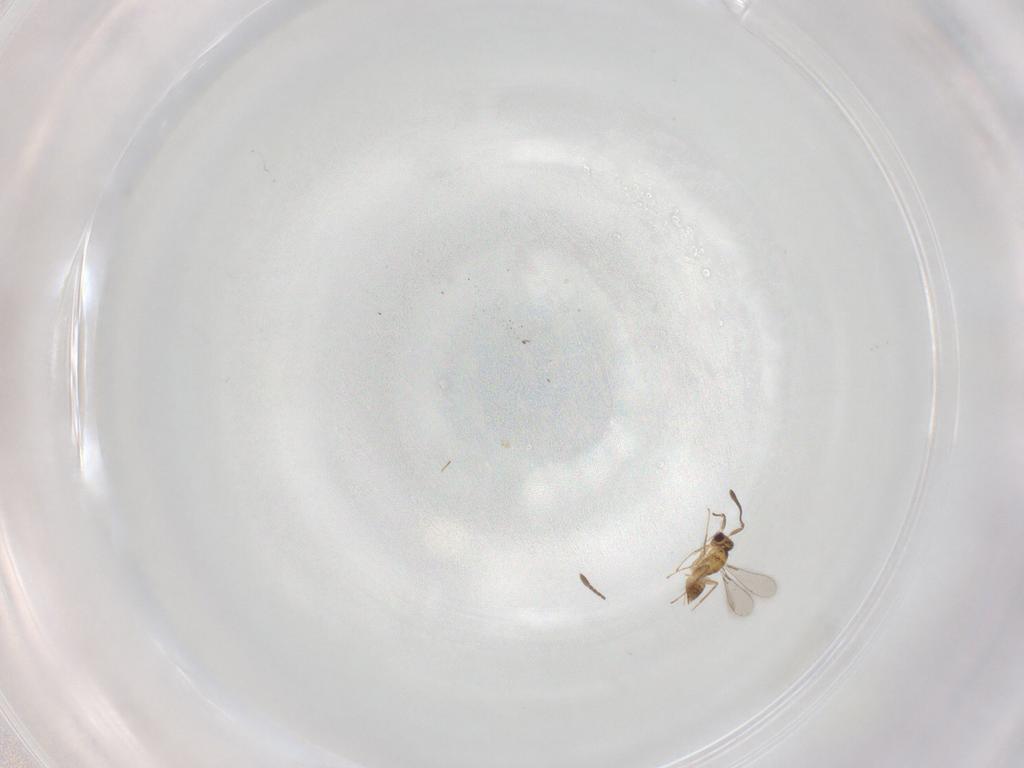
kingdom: Animalia
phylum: Arthropoda
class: Insecta
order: Hymenoptera
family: Mymaridae
